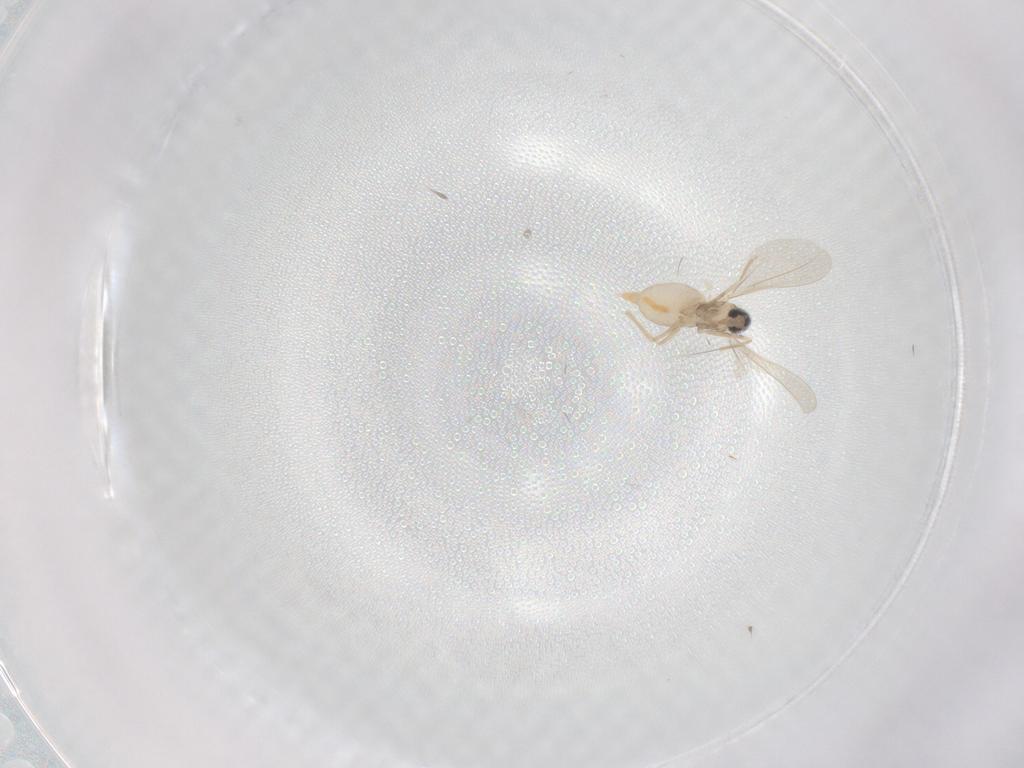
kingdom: Animalia
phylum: Arthropoda
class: Insecta
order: Diptera
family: Cecidomyiidae
